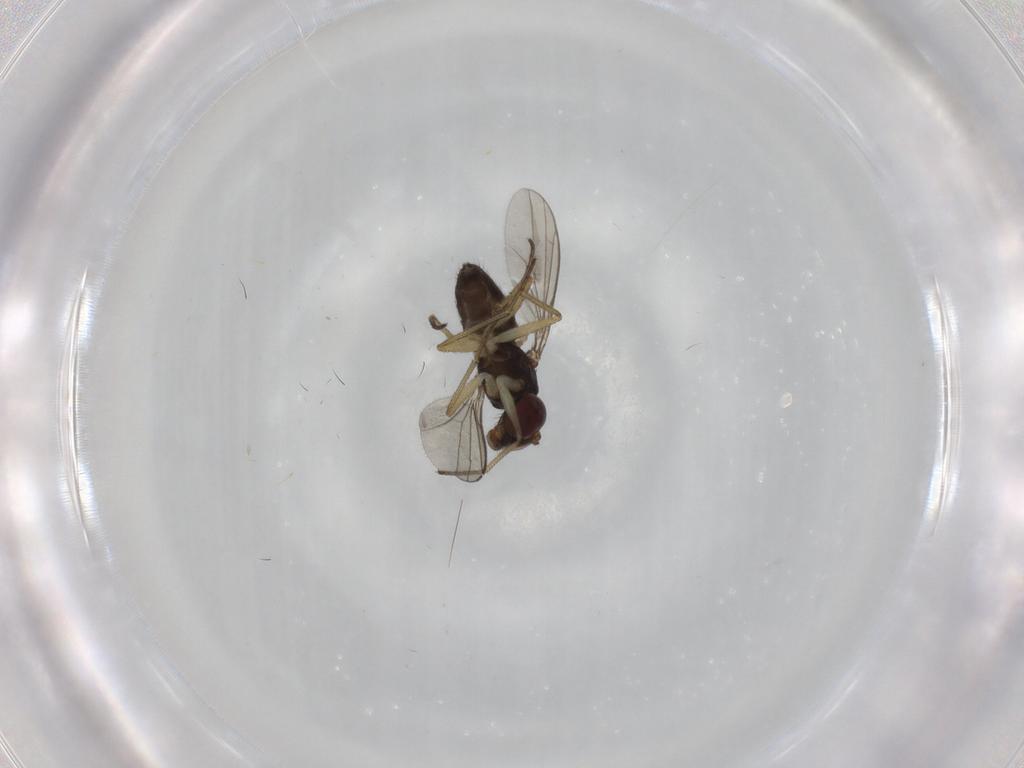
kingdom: Animalia
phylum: Arthropoda
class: Insecta
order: Diptera
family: Dolichopodidae
